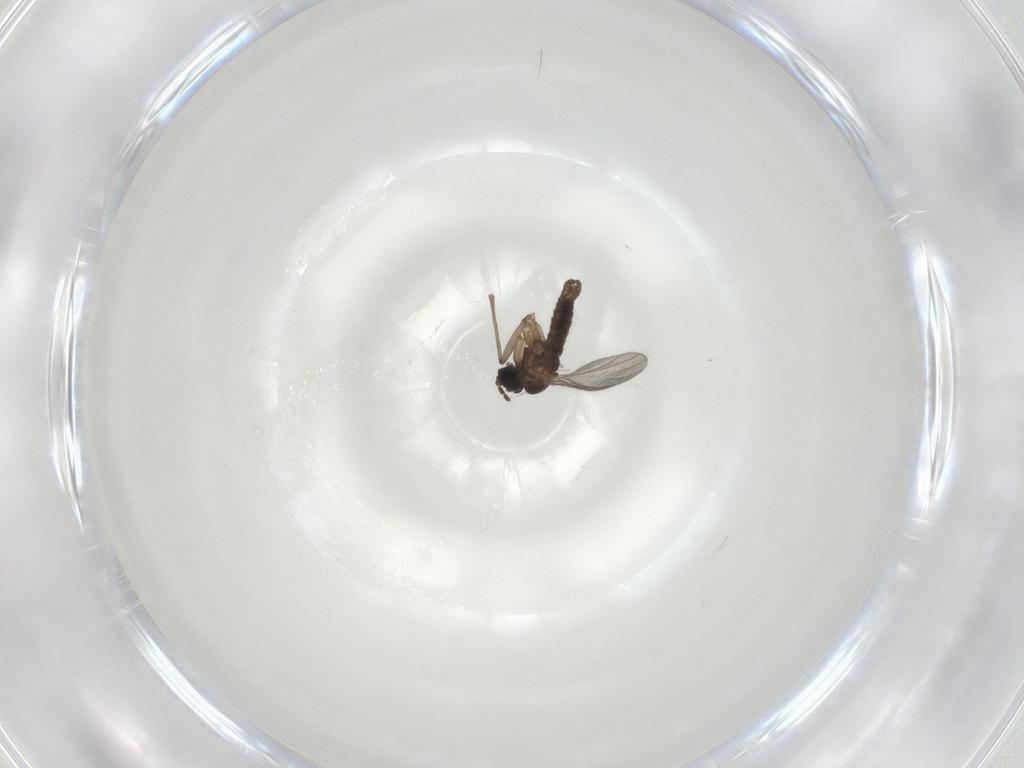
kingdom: Animalia
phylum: Arthropoda
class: Insecta
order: Diptera
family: Sciaridae
